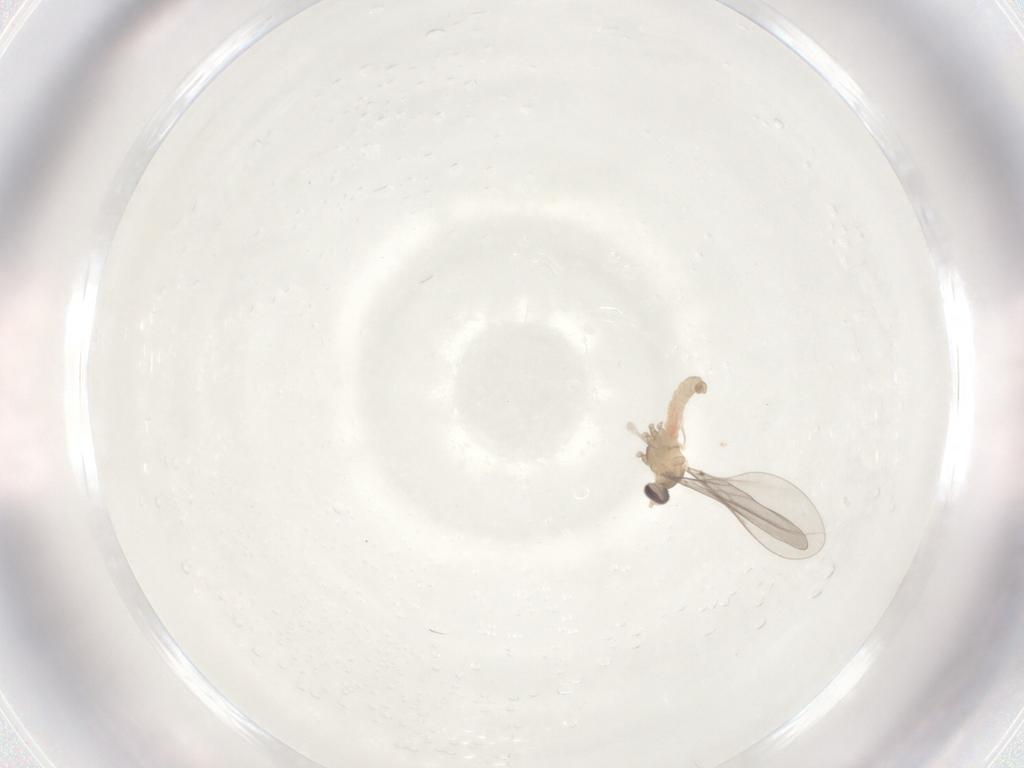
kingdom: Animalia
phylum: Arthropoda
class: Insecta
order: Diptera
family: Cecidomyiidae
